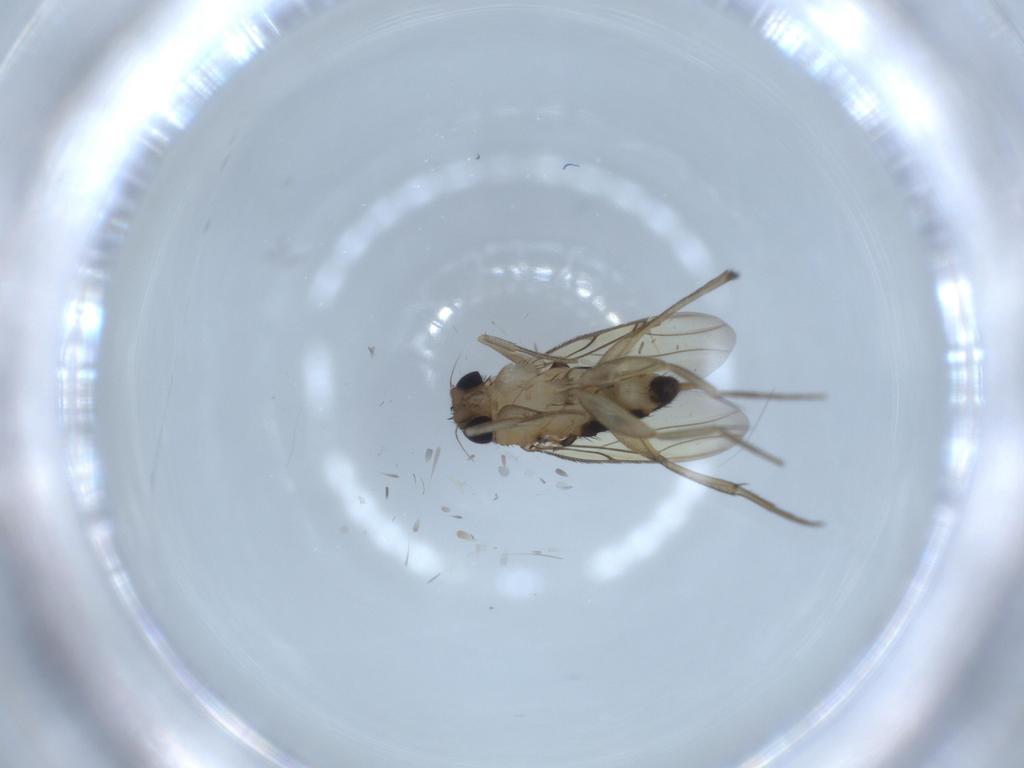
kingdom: Animalia
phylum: Arthropoda
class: Insecta
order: Diptera
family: Phoridae
